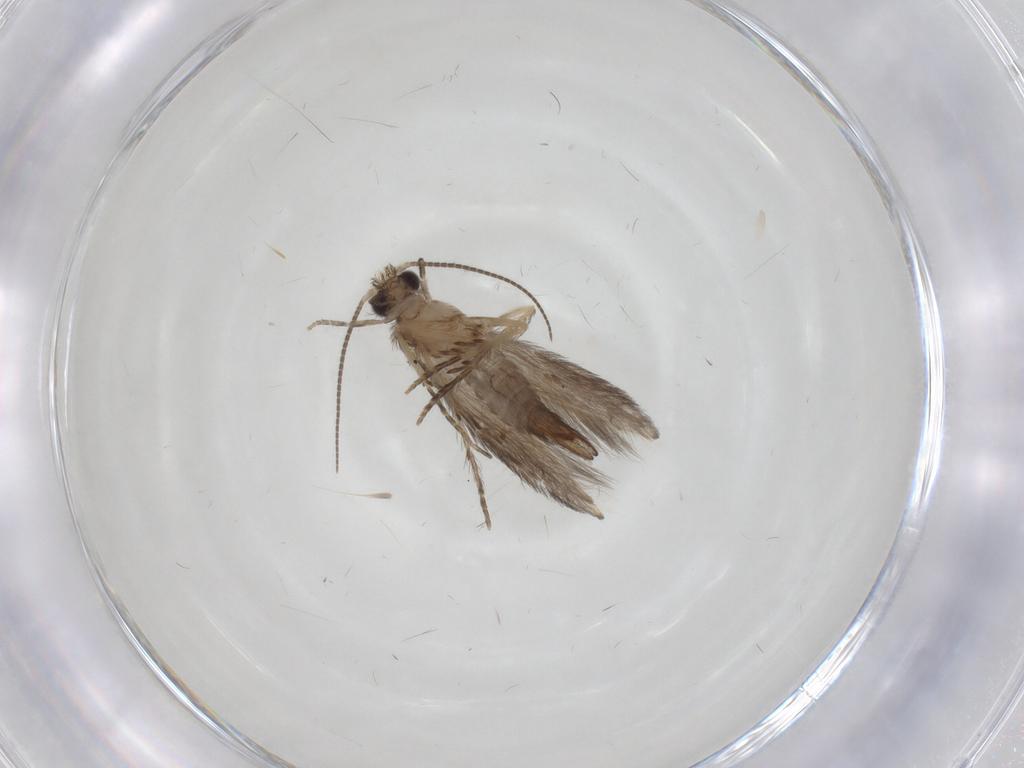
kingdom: Animalia
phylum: Arthropoda
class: Insecta
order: Trichoptera
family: Hydroptilidae
